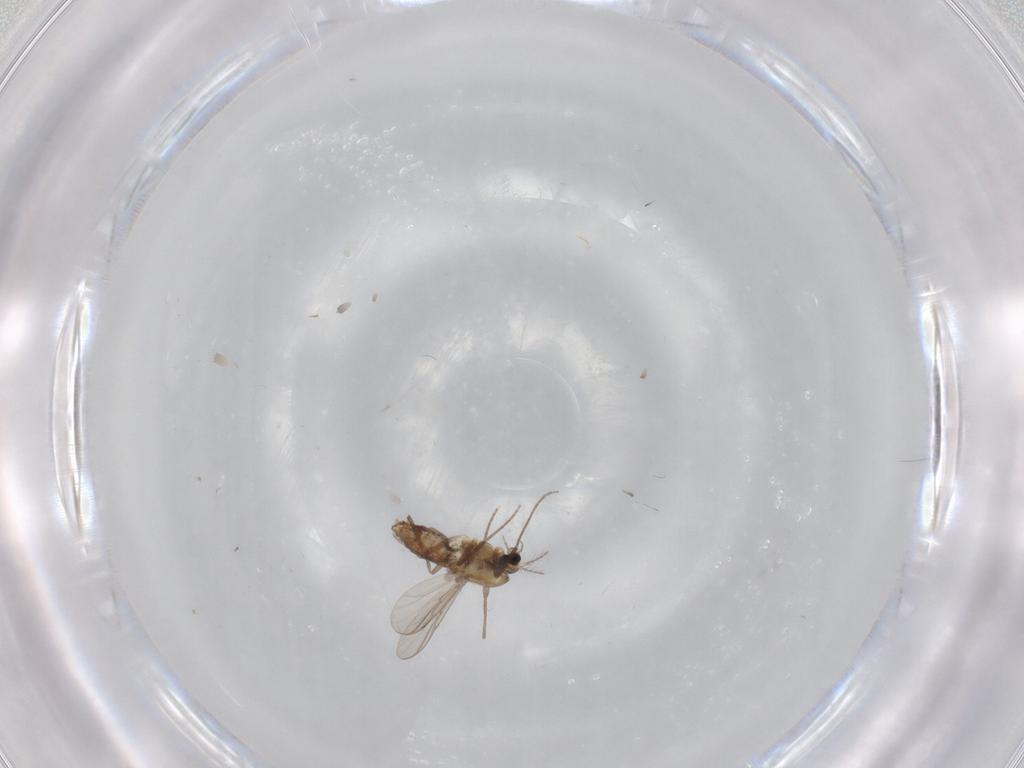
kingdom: Animalia
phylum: Arthropoda
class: Insecta
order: Diptera
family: Chironomidae
